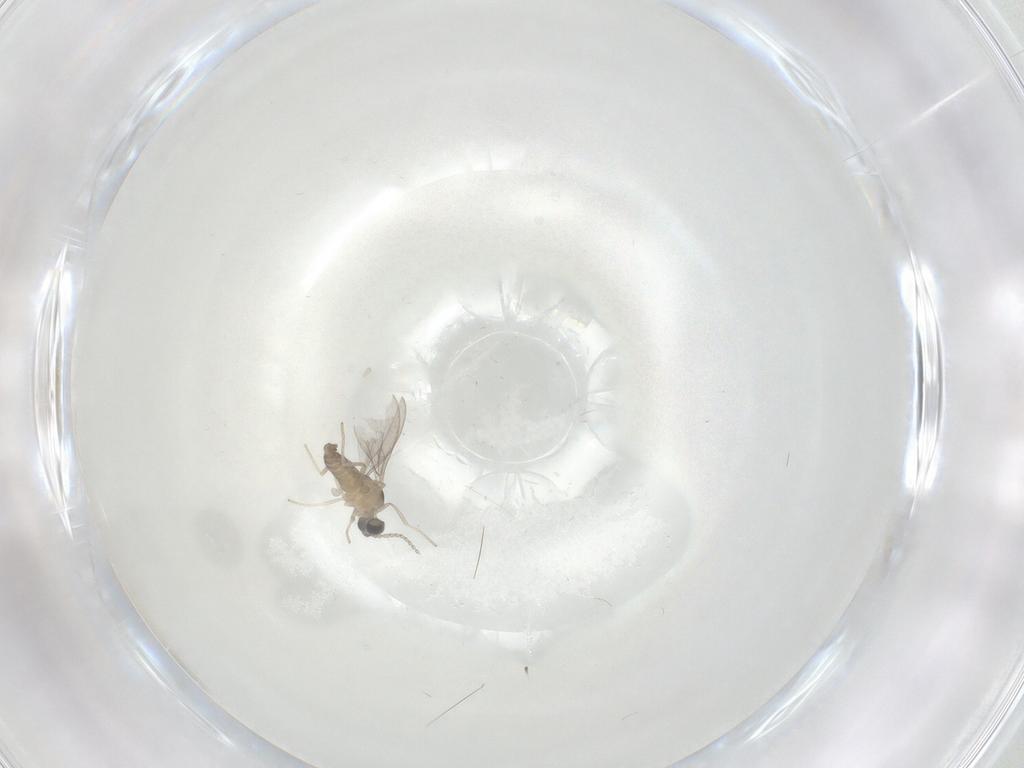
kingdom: Animalia
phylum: Arthropoda
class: Insecta
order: Diptera
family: Cecidomyiidae
